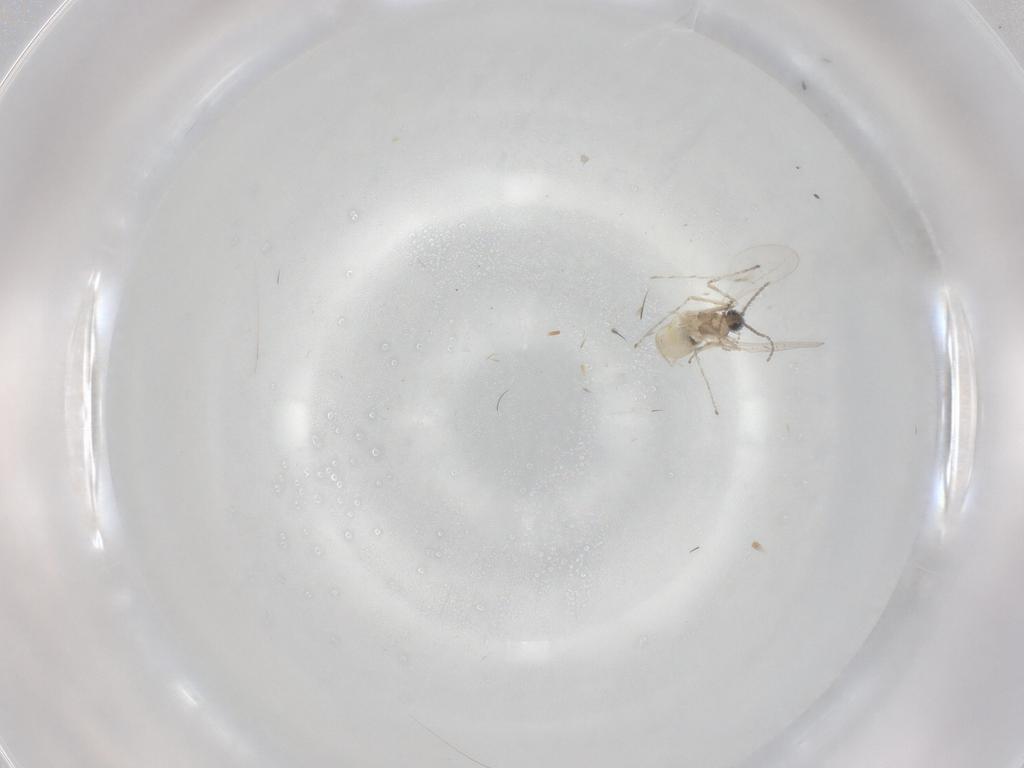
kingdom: Animalia
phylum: Arthropoda
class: Insecta
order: Diptera
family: Cecidomyiidae
